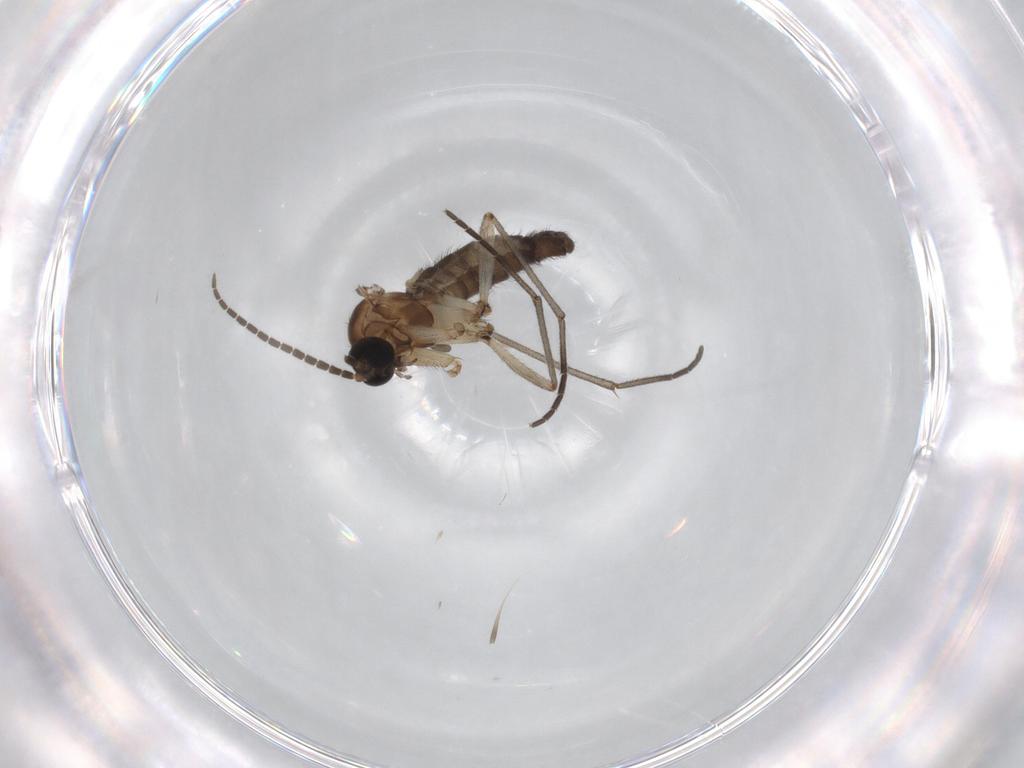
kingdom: Animalia
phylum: Arthropoda
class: Insecta
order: Diptera
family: Sciaridae
